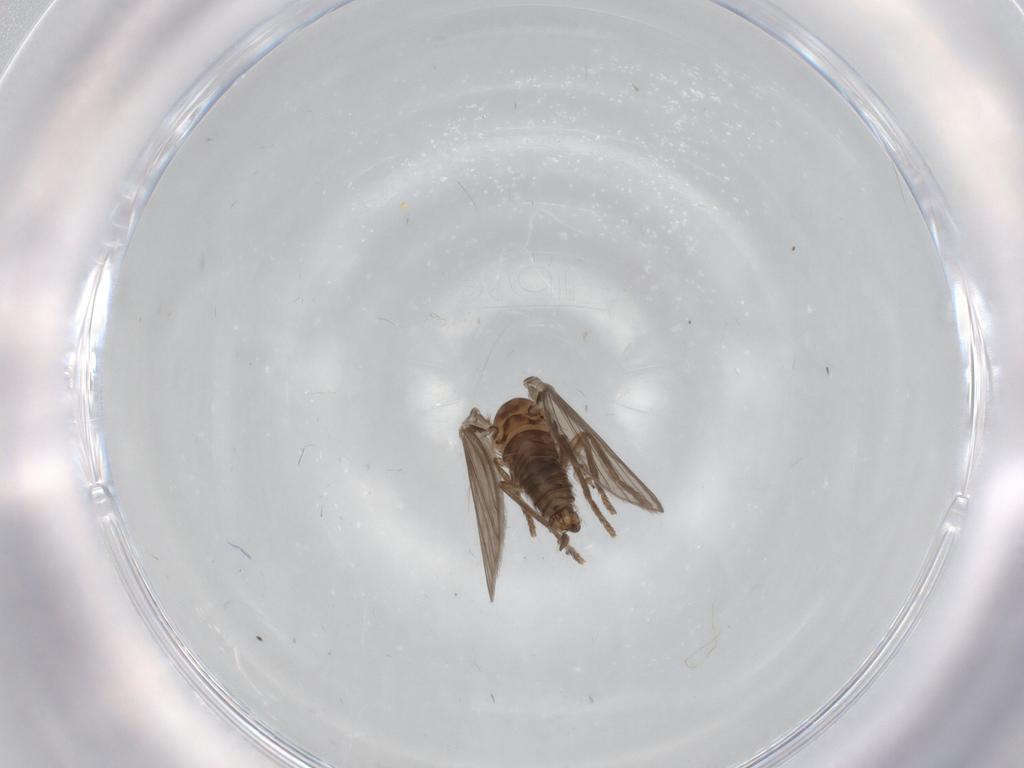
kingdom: Animalia
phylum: Arthropoda
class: Insecta
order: Diptera
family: Psychodidae
